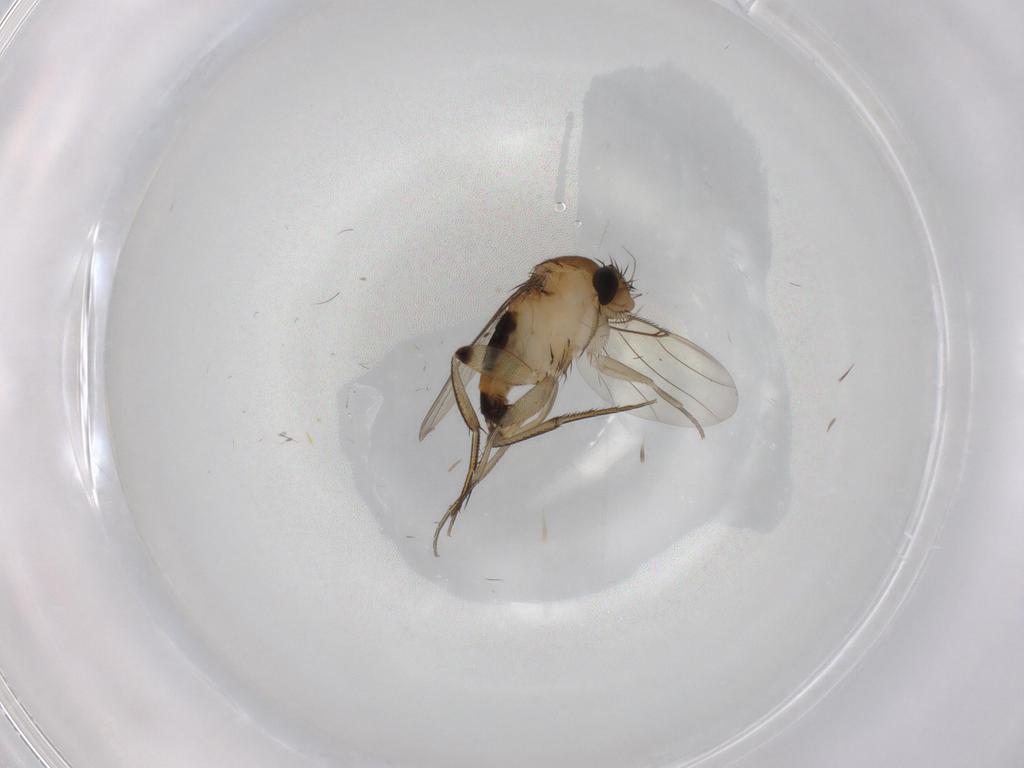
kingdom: Animalia
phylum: Arthropoda
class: Insecta
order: Diptera
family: Phoridae
